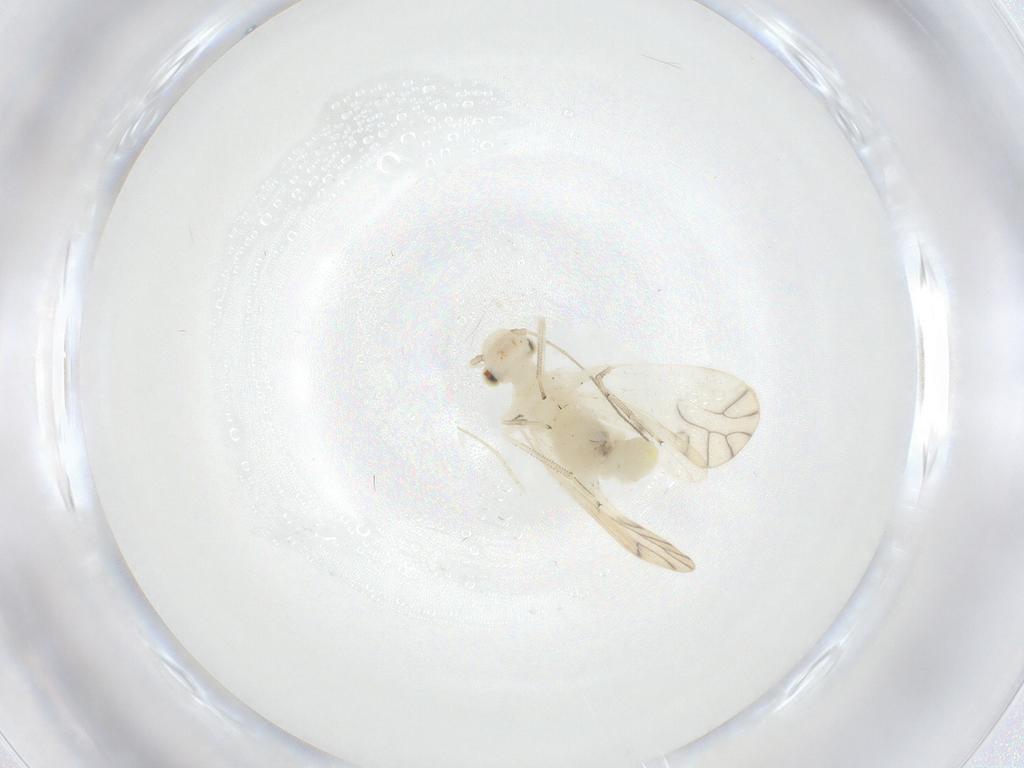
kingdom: Animalia
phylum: Arthropoda
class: Insecta
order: Psocodea
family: Caeciliusidae
